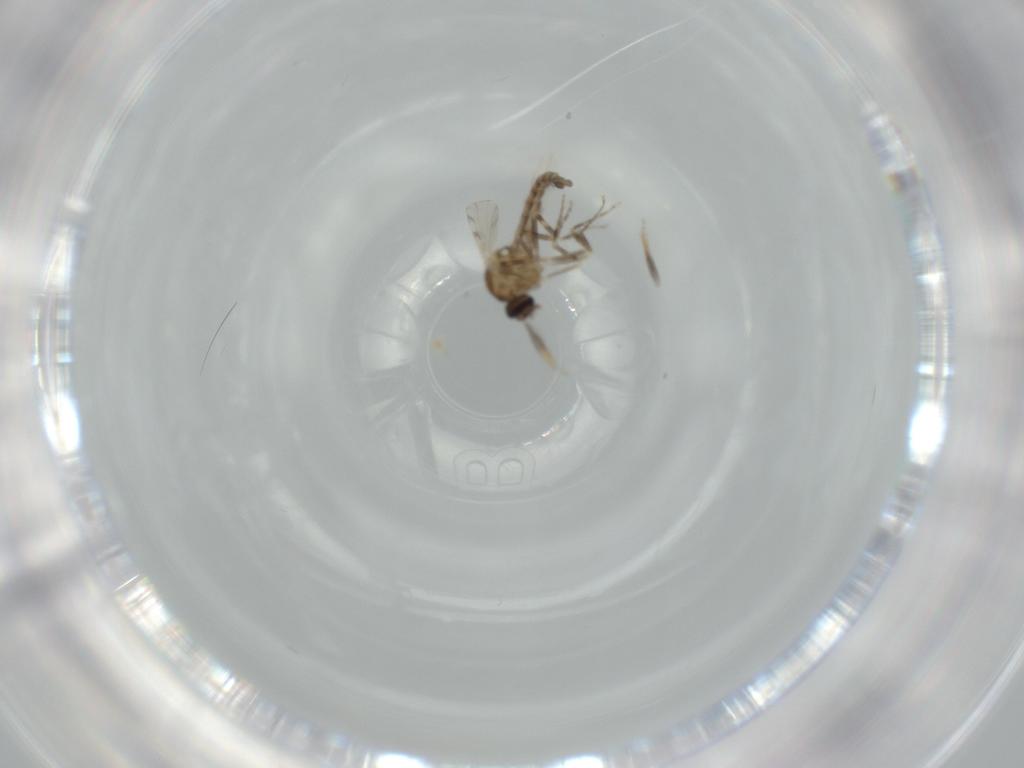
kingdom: Animalia
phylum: Arthropoda
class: Insecta
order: Diptera
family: Ceratopogonidae
